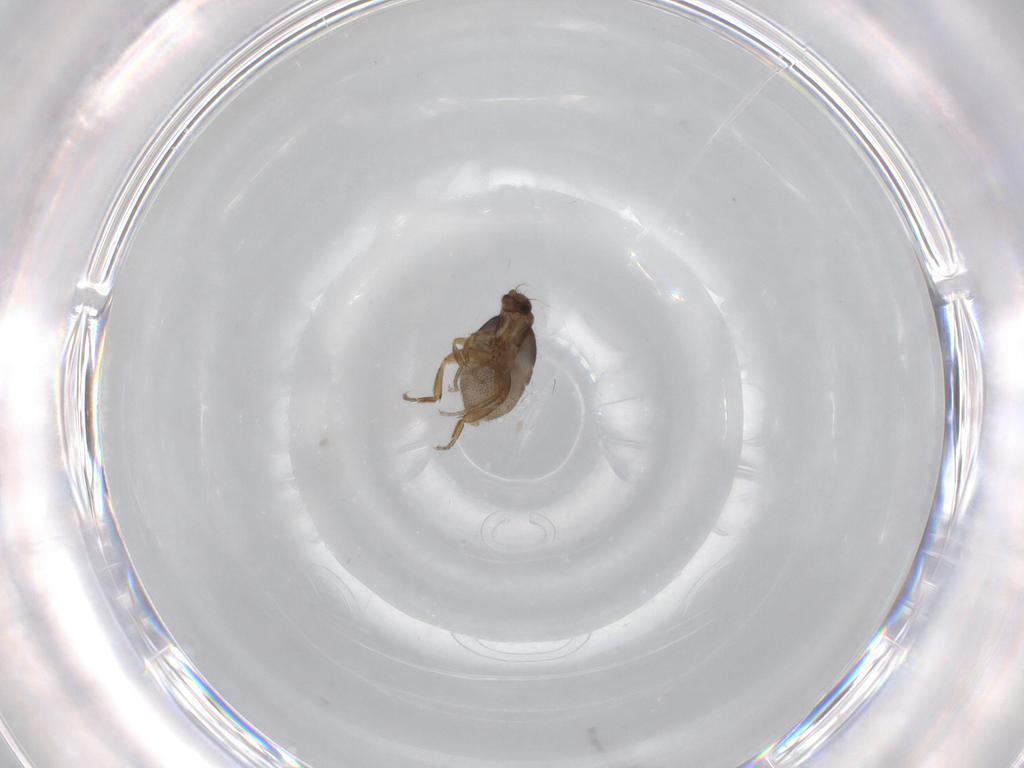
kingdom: Animalia
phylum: Arthropoda
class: Insecta
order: Diptera
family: Phoridae
